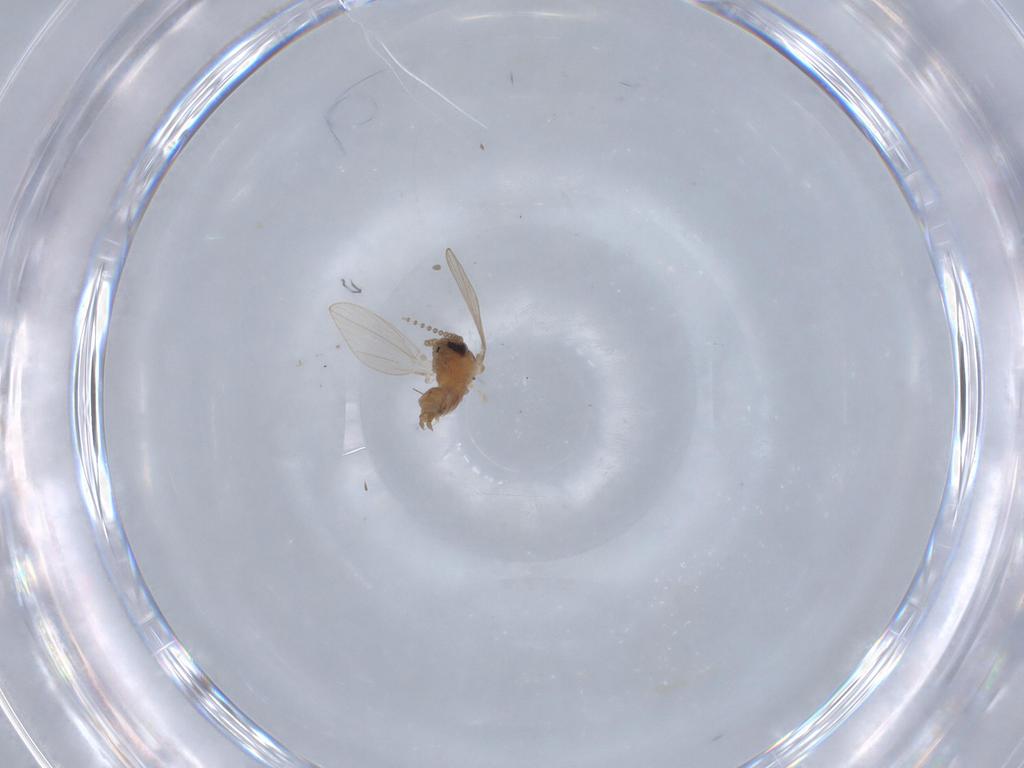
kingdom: Animalia
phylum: Arthropoda
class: Insecta
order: Diptera
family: Psychodidae
